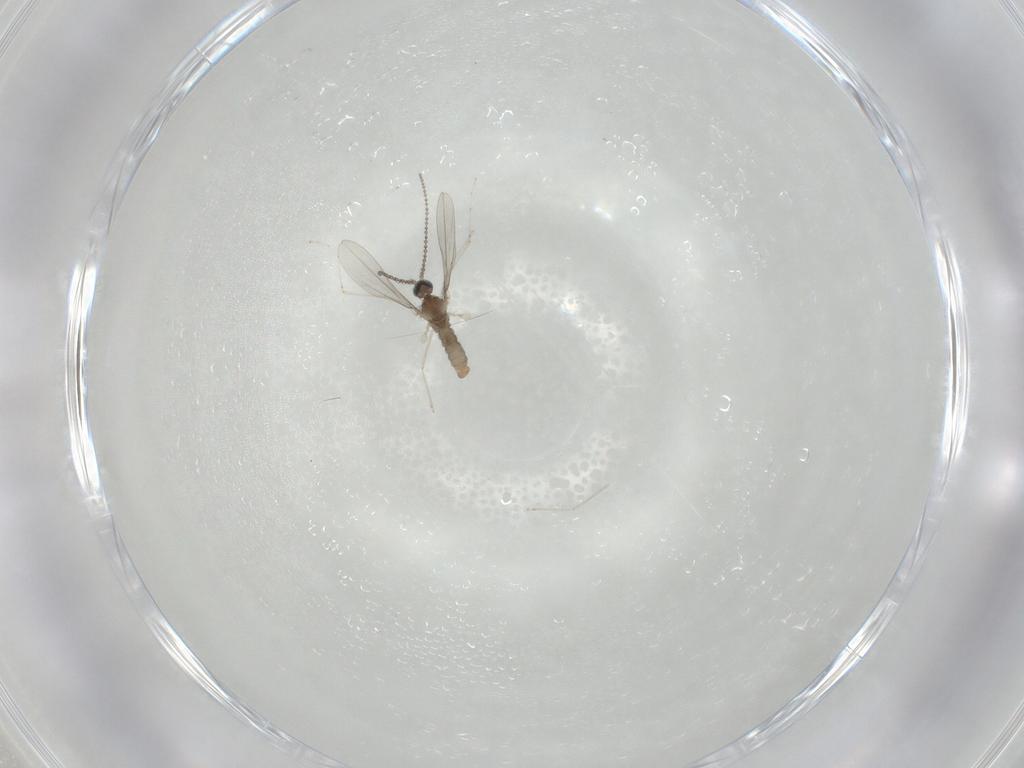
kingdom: Animalia
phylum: Arthropoda
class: Insecta
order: Diptera
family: Cecidomyiidae
